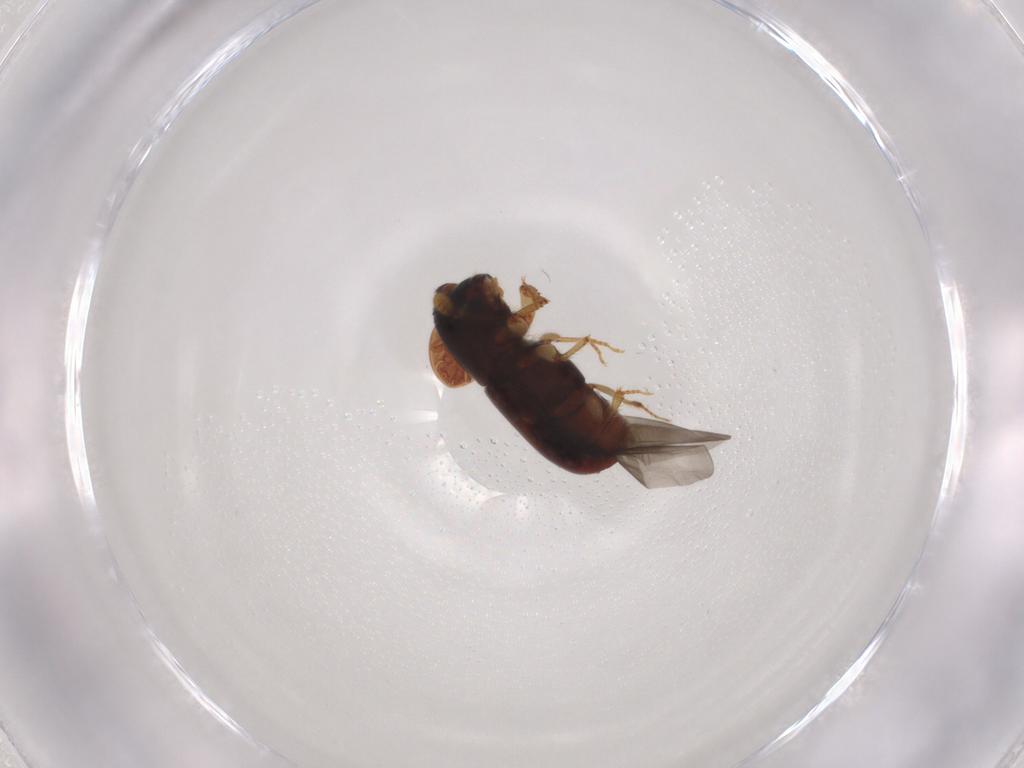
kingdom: Animalia
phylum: Arthropoda
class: Insecta
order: Coleoptera
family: Curculionidae
